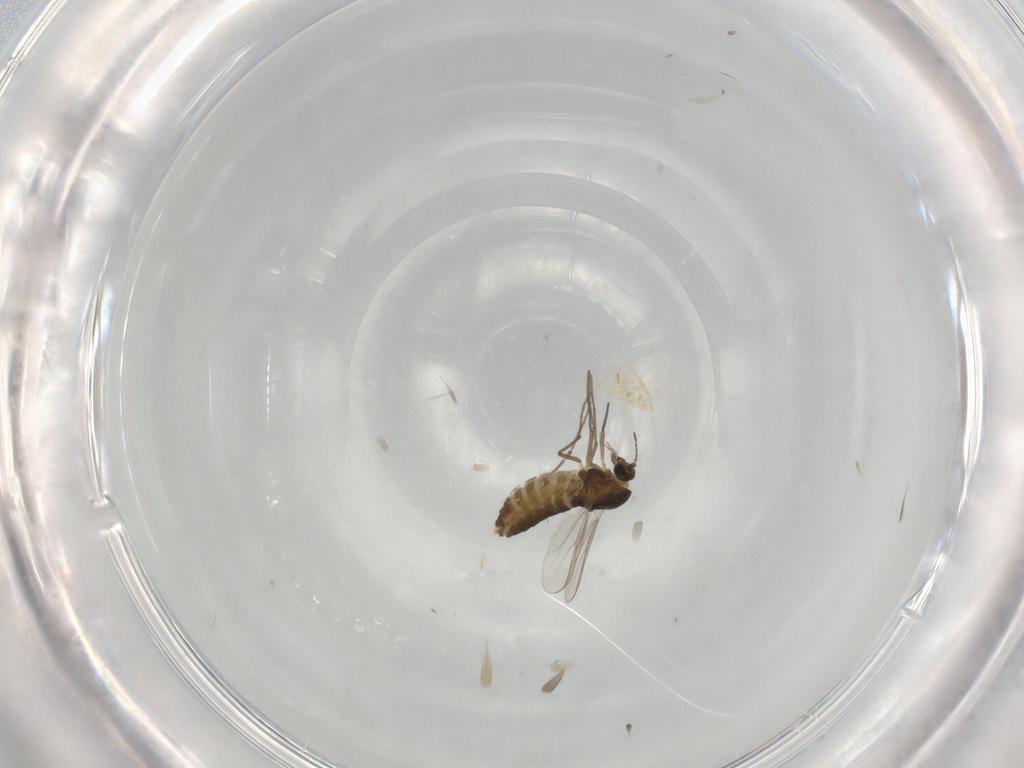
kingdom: Animalia
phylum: Arthropoda
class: Insecta
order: Diptera
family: Chironomidae
